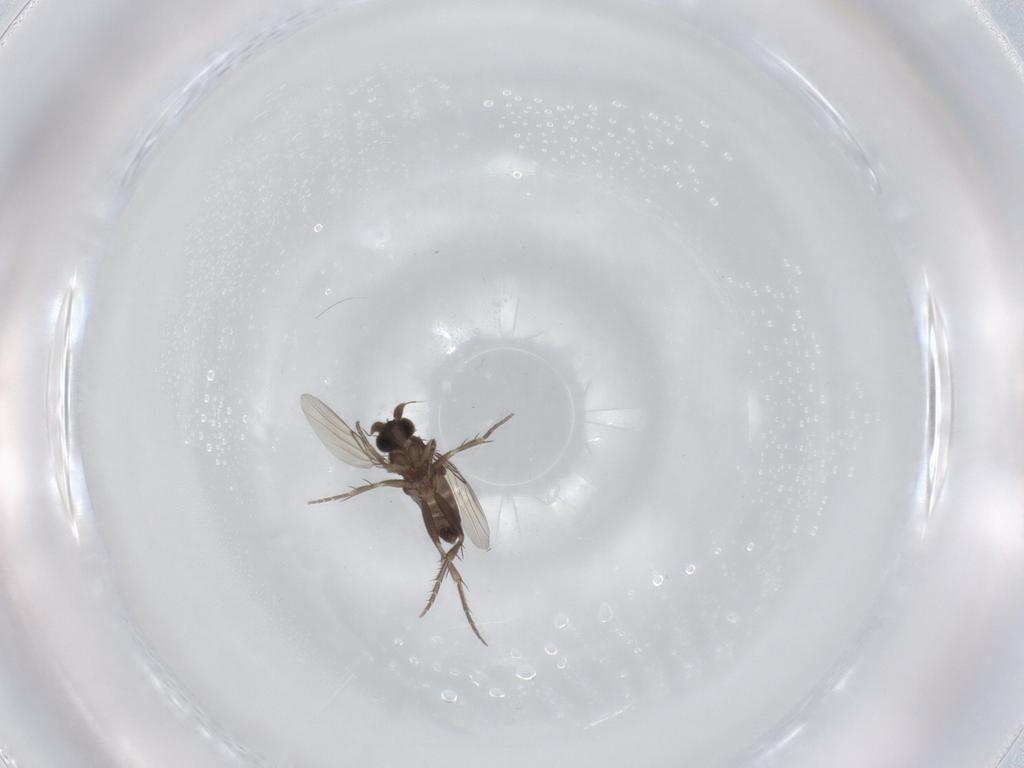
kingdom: Animalia
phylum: Arthropoda
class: Insecta
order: Diptera
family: Phoridae
